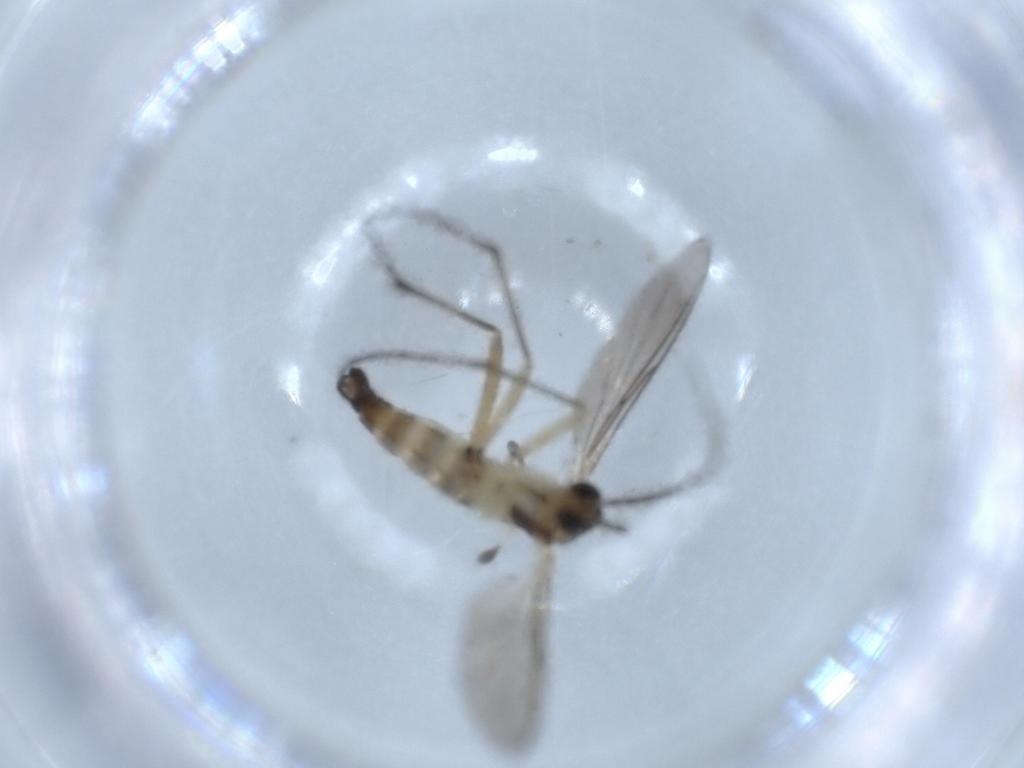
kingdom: Animalia
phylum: Arthropoda
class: Insecta
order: Diptera
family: Sciaridae
